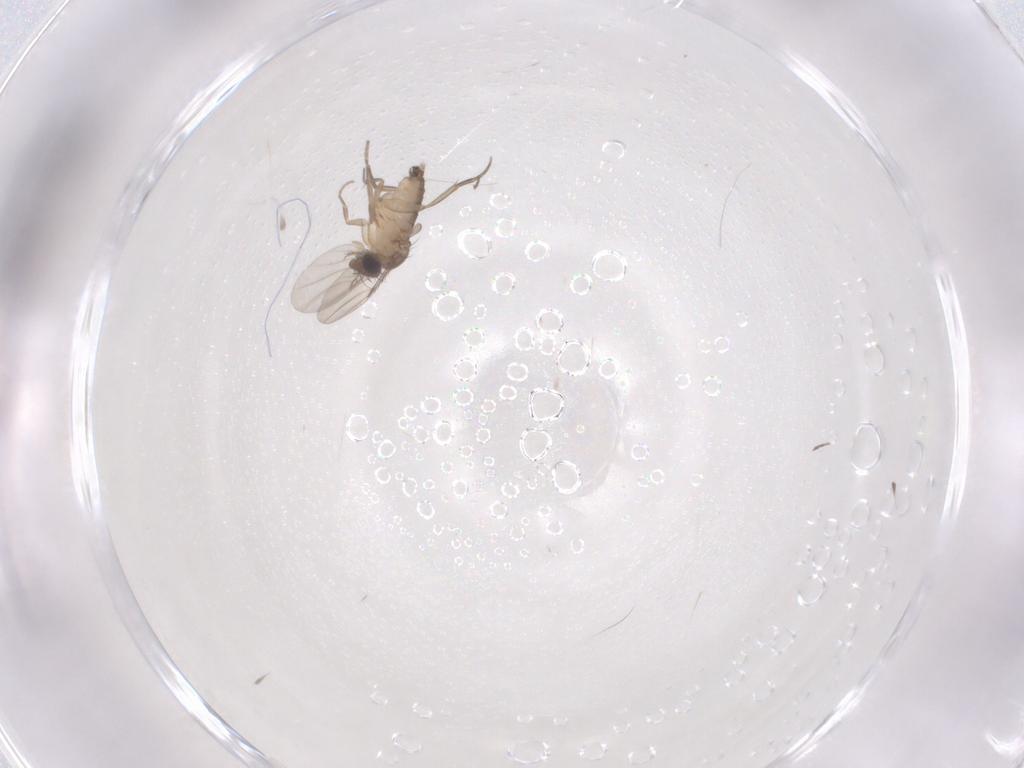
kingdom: Animalia
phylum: Arthropoda
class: Insecta
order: Diptera
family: Phoridae
